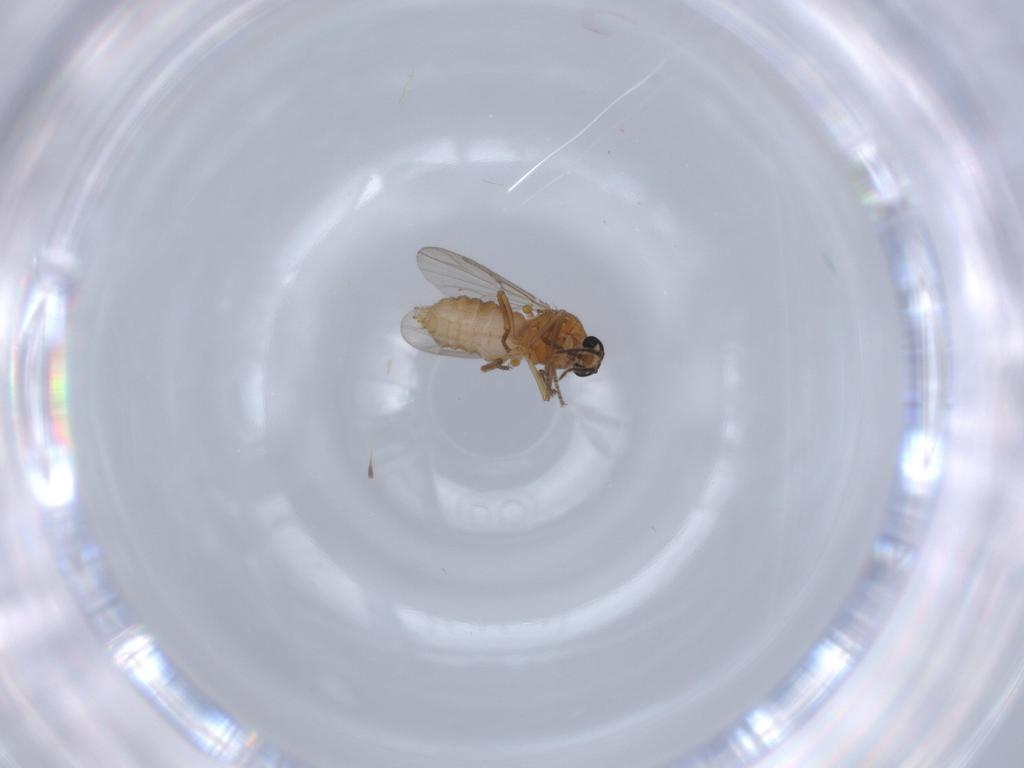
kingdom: Animalia
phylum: Arthropoda
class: Insecta
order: Diptera
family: Ceratopogonidae
